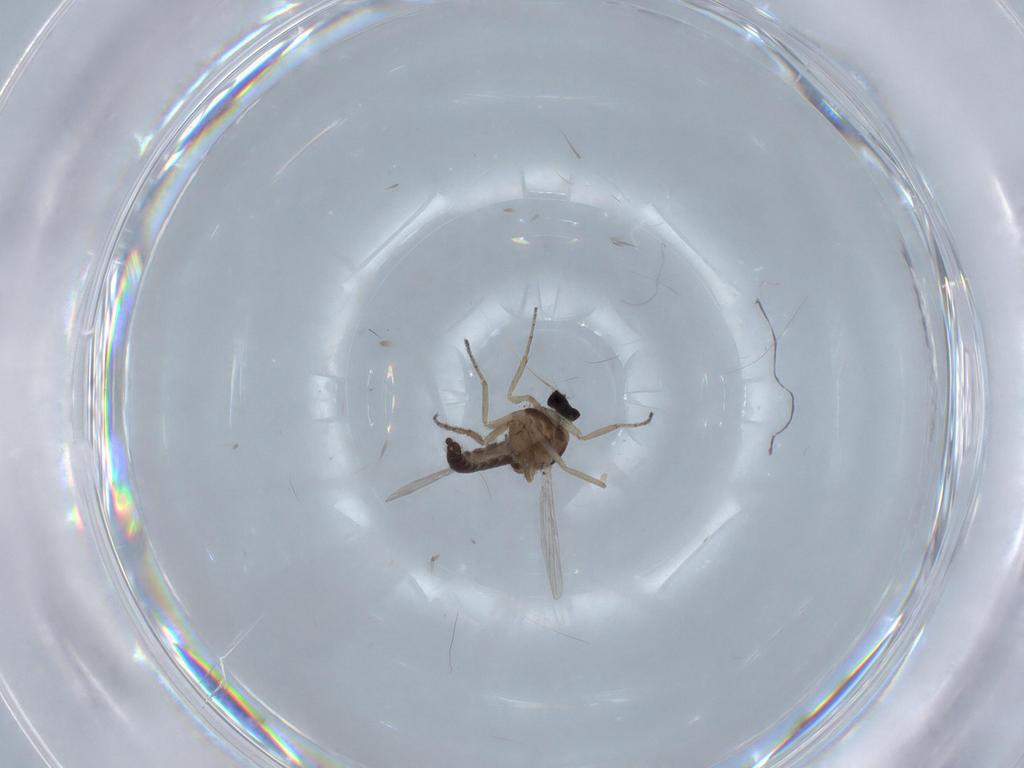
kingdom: Animalia
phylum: Arthropoda
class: Insecta
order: Diptera
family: Ceratopogonidae
